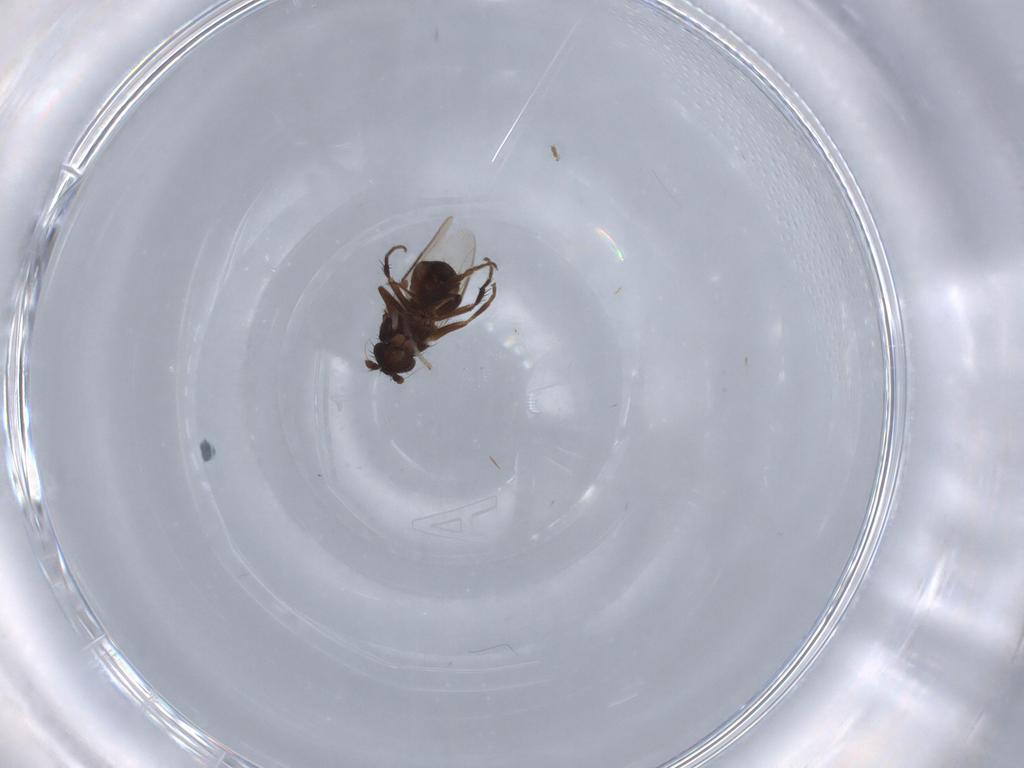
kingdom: Animalia
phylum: Arthropoda
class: Insecta
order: Diptera
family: Sphaeroceridae
